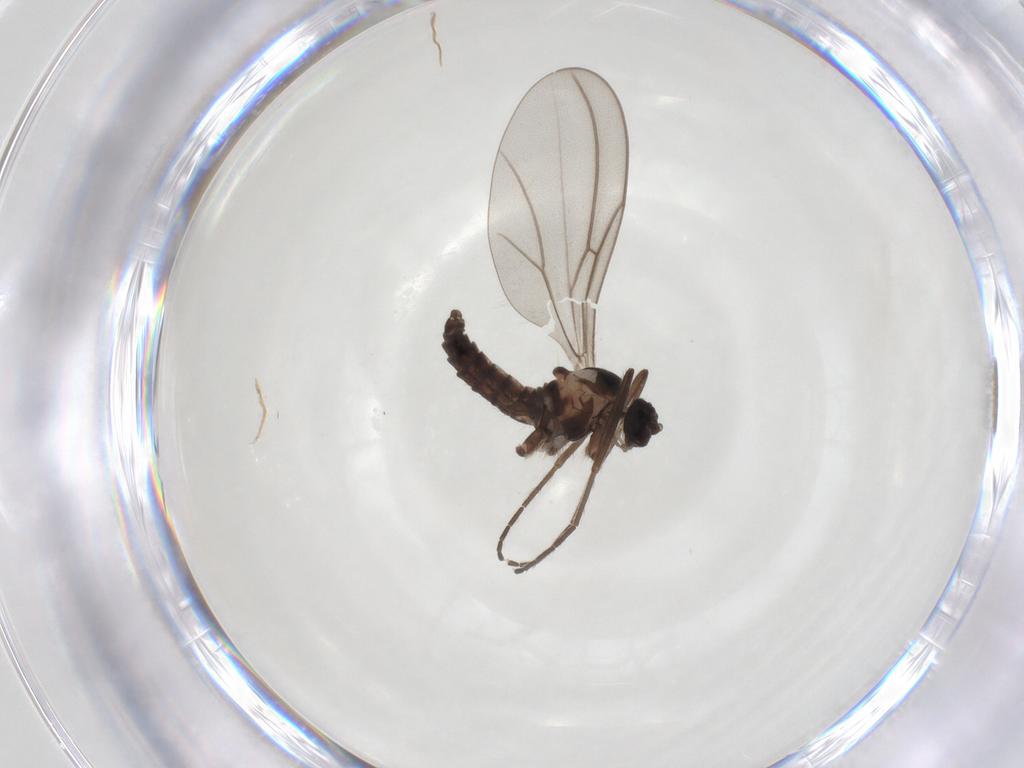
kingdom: Animalia
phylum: Arthropoda
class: Insecta
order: Diptera
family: Cecidomyiidae
